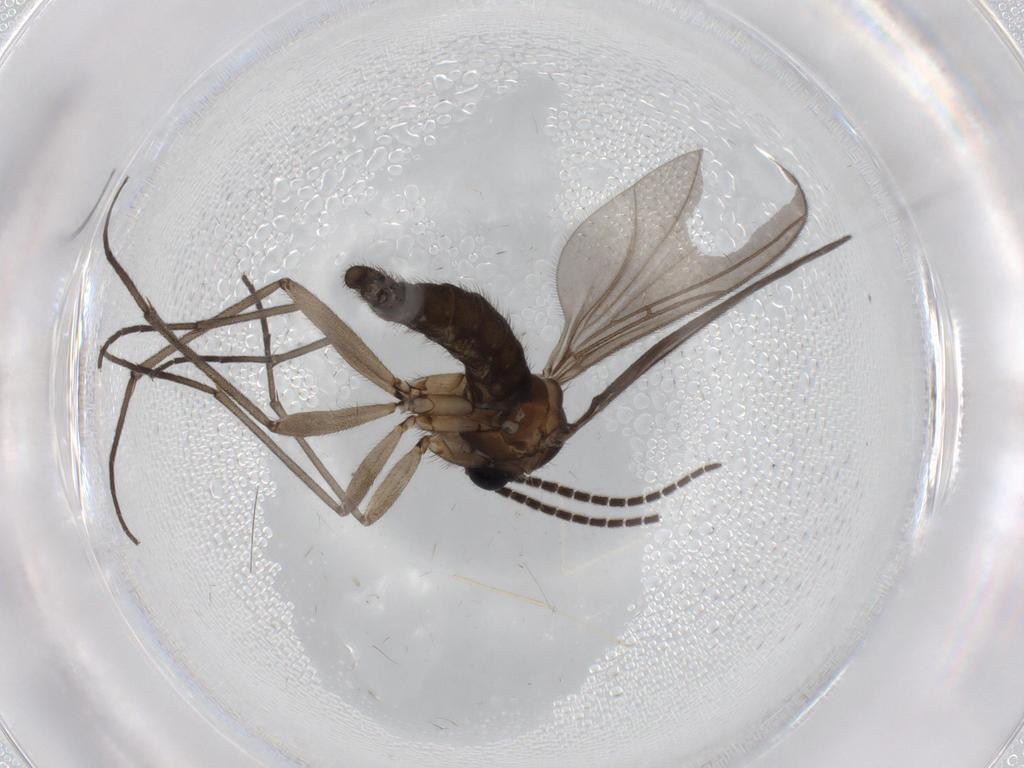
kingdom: Animalia
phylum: Arthropoda
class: Insecta
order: Diptera
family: Sciaridae
